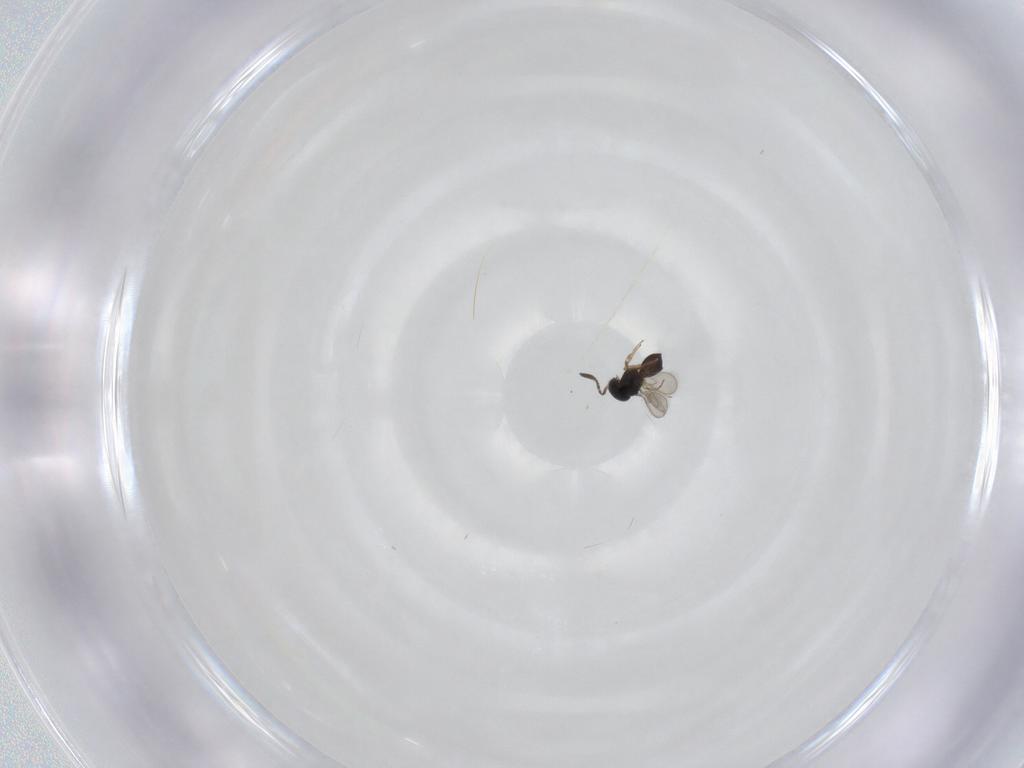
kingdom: Animalia
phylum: Arthropoda
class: Insecta
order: Hymenoptera
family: Scelionidae
